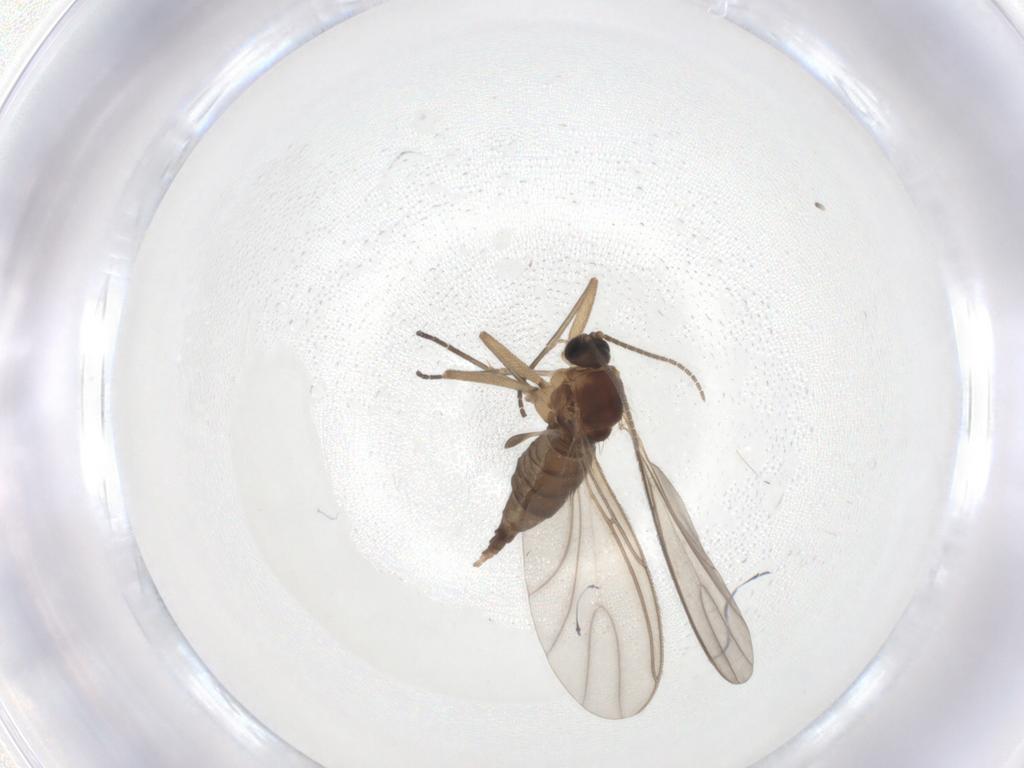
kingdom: Animalia
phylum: Arthropoda
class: Insecta
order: Diptera
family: Sciaridae
